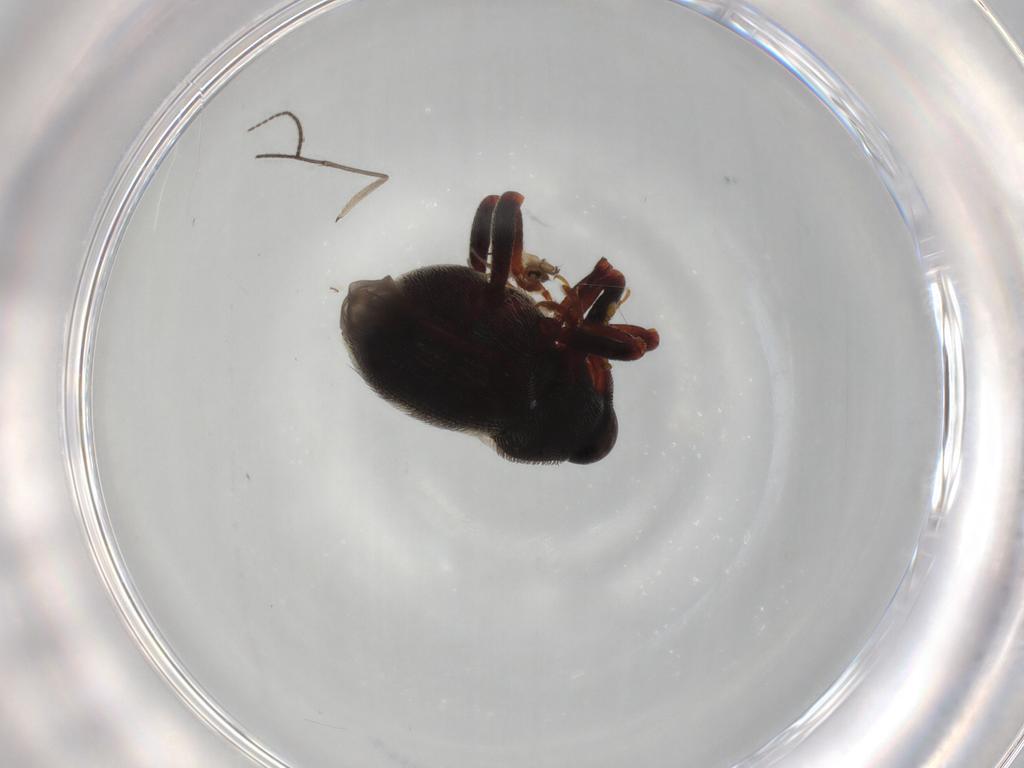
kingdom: Animalia
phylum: Arthropoda
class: Insecta
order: Coleoptera
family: Curculionidae
